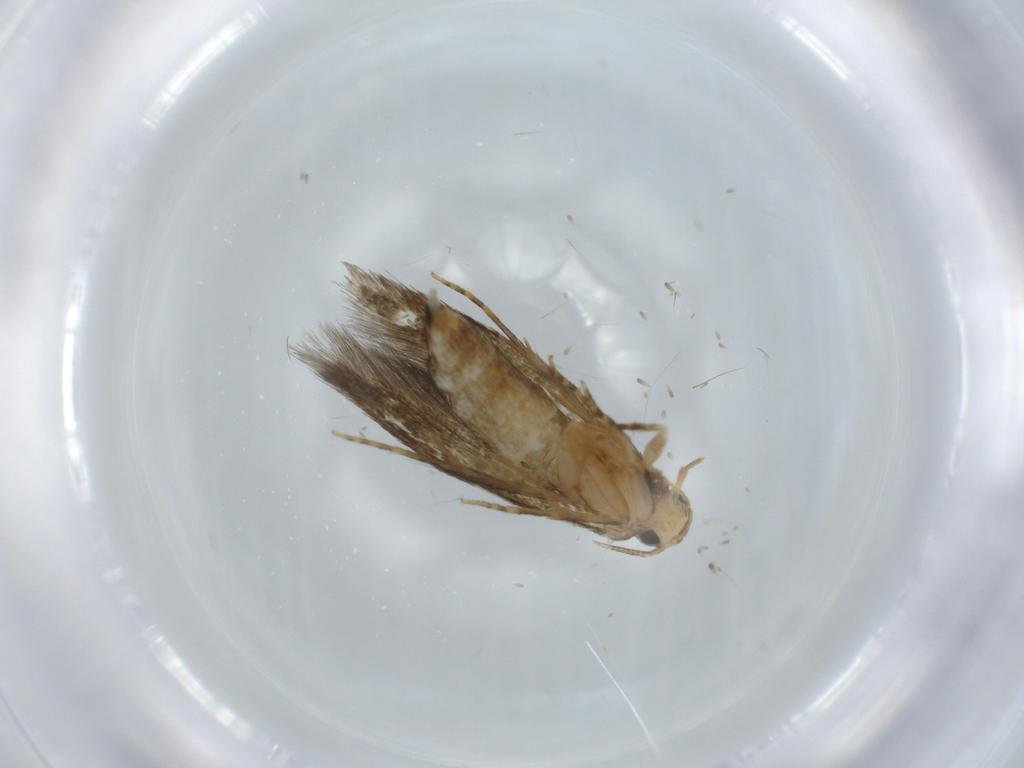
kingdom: Animalia
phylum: Arthropoda
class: Insecta
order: Lepidoptera
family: Tineidae
